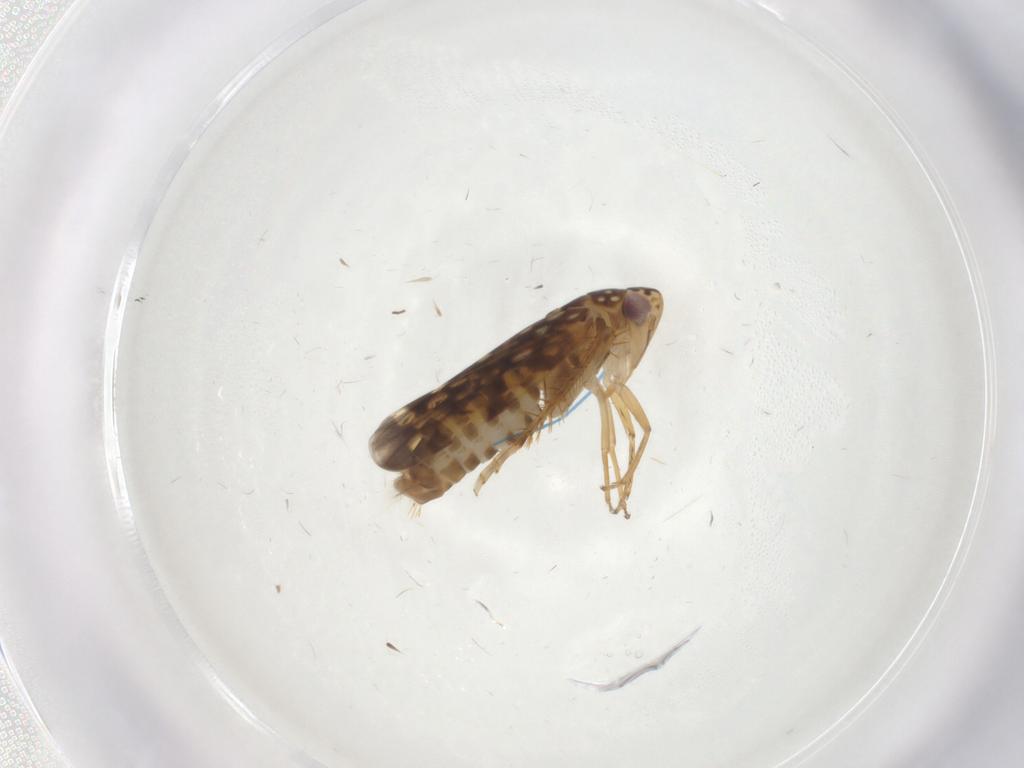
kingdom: Animalia
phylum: Arthropoda
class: Insecta
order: Hemiptera
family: Cicadellidae
